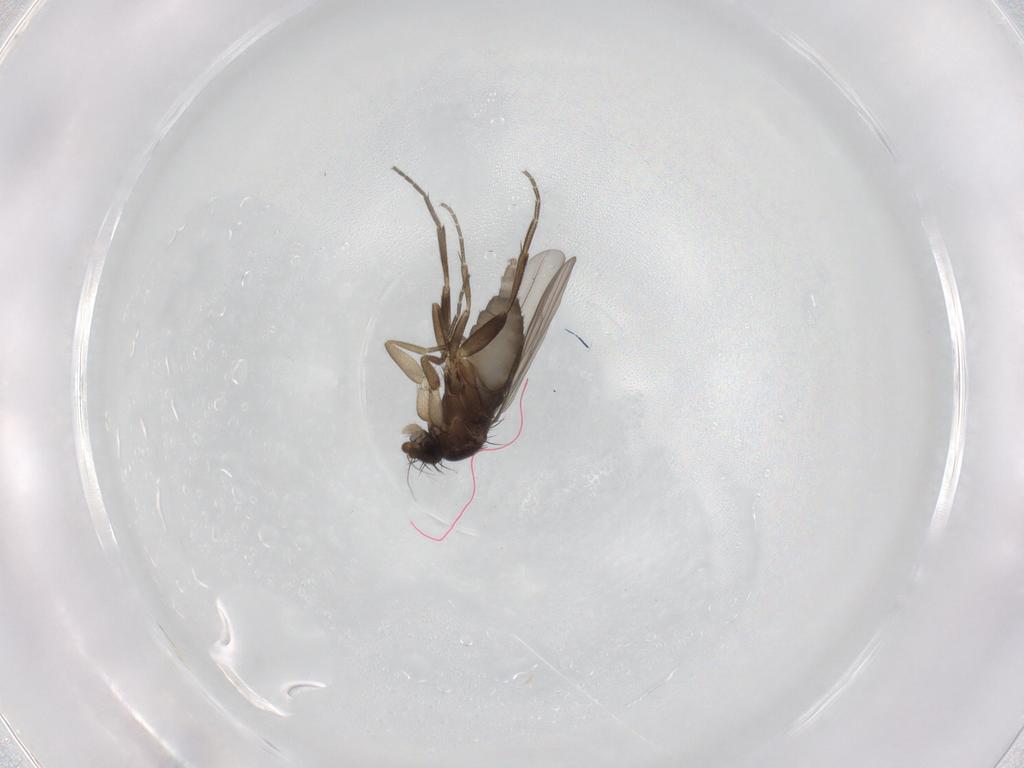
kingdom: Animalia
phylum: Arthropoda
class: Insecta
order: Diptera
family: Phoridae
